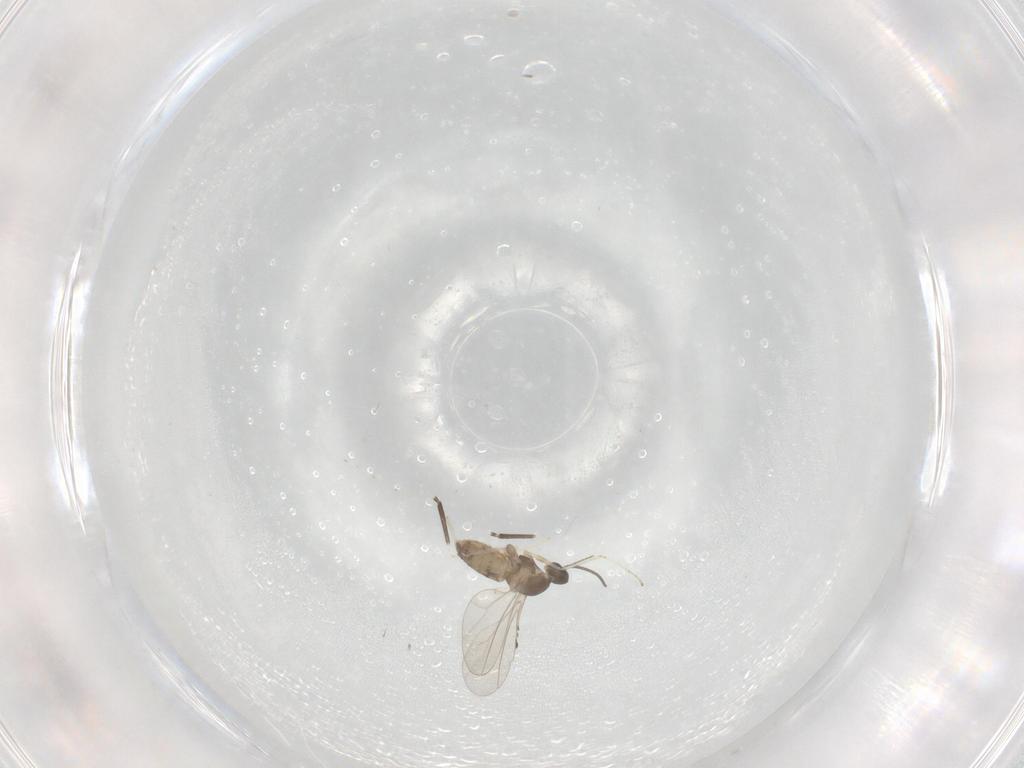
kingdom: Animalia
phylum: Arthropoda
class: Insecta
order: Diptera
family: Cecidomyiidae
